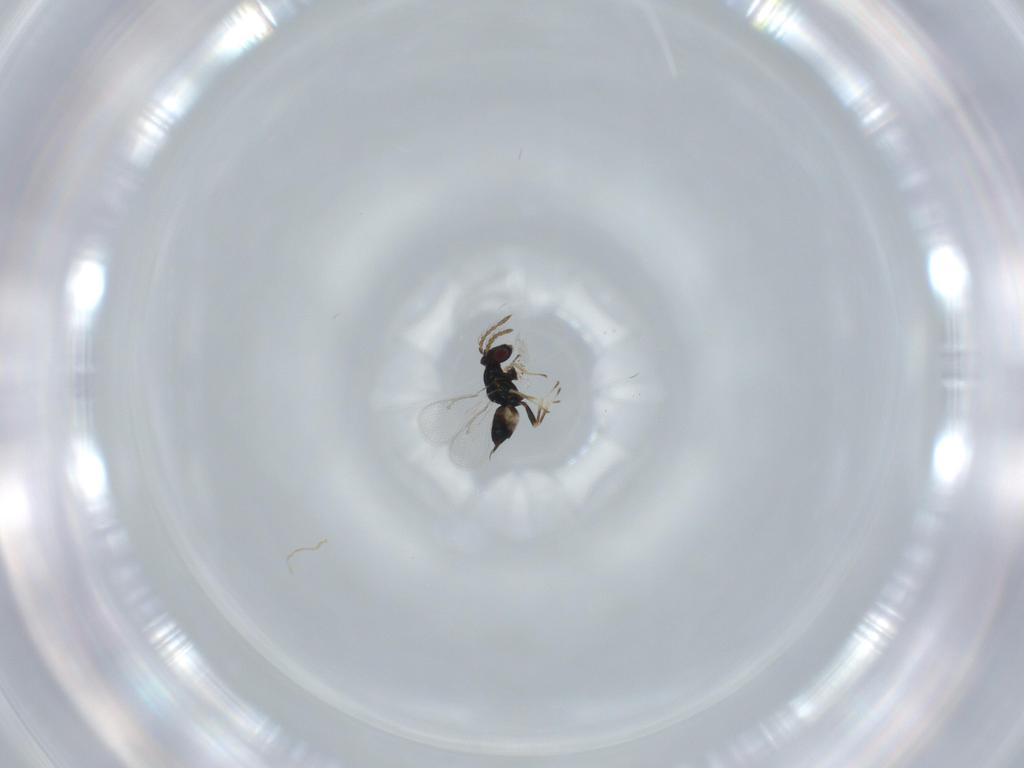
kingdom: Animalia
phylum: Arthropoda
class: Insecta
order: Hymenoptera
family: Eulophidae
